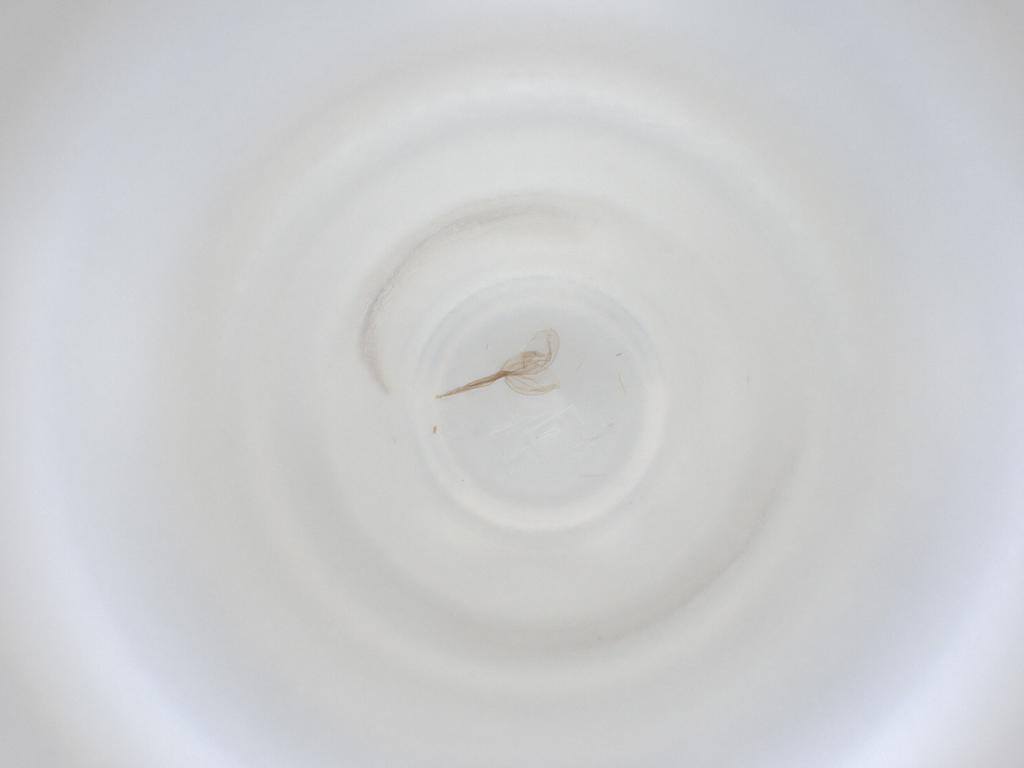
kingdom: Animalia
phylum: Arthropoda
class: Insecta
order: Diptera
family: Cecidomyiidae
